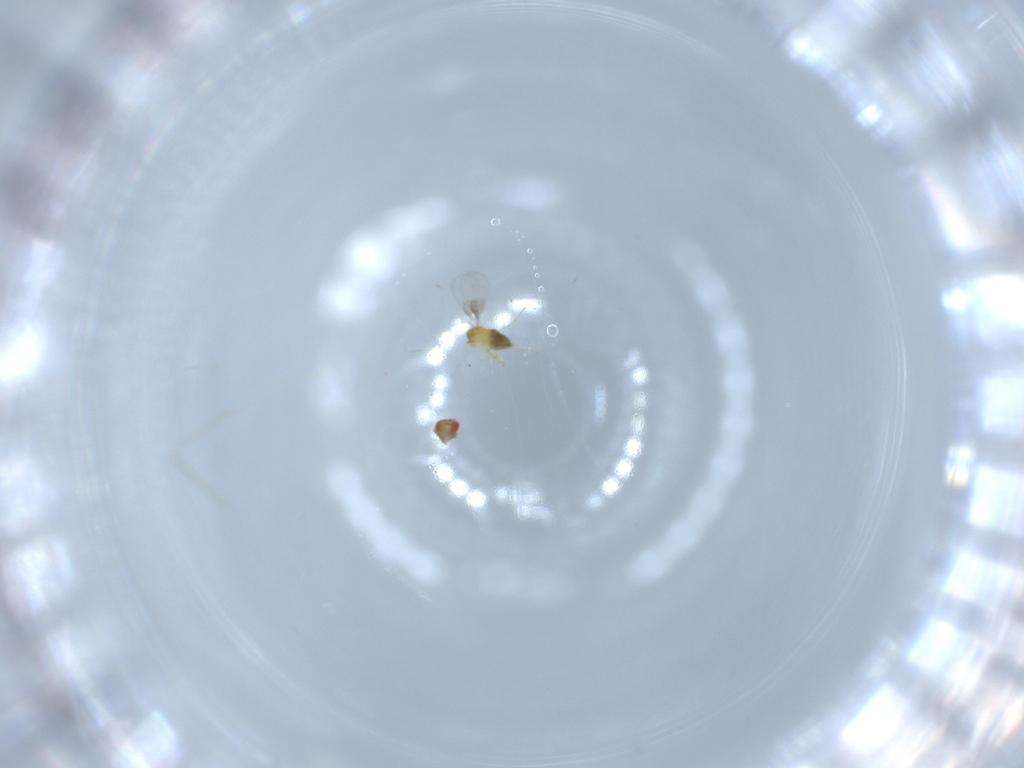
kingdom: Animalia
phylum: Arthropoda
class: Insecta
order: Hymenoptera
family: Trichogrammatidae
